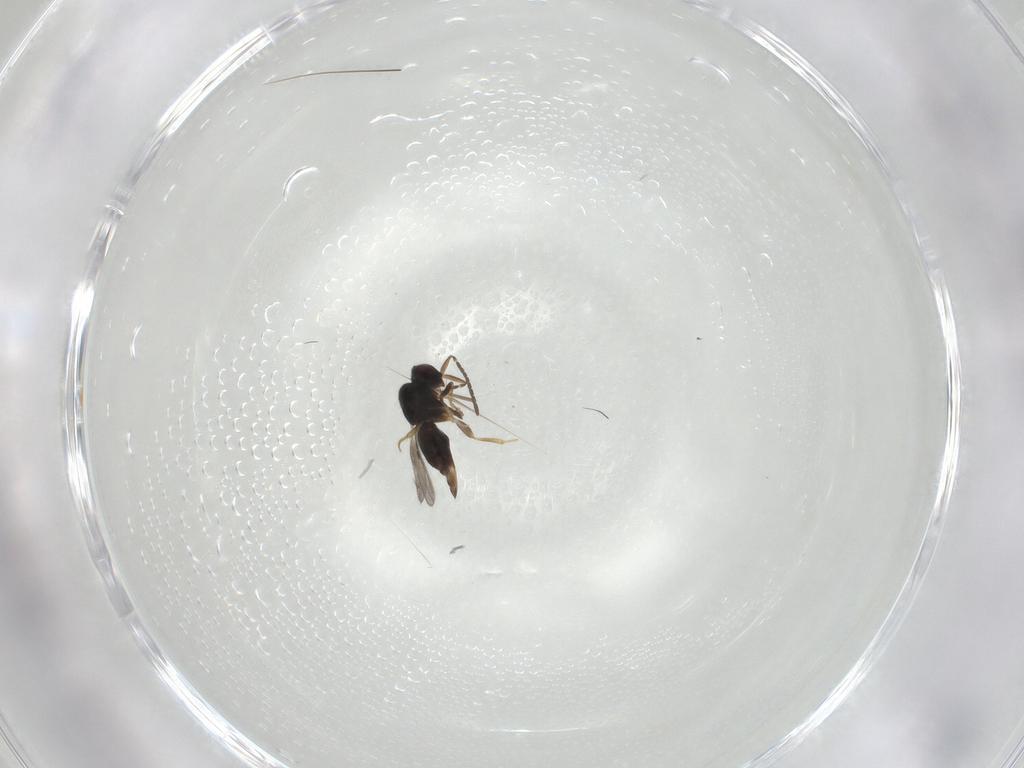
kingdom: Animalia
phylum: Arthropoda
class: Insecta
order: Hymenoptera
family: Ceraphronidae
